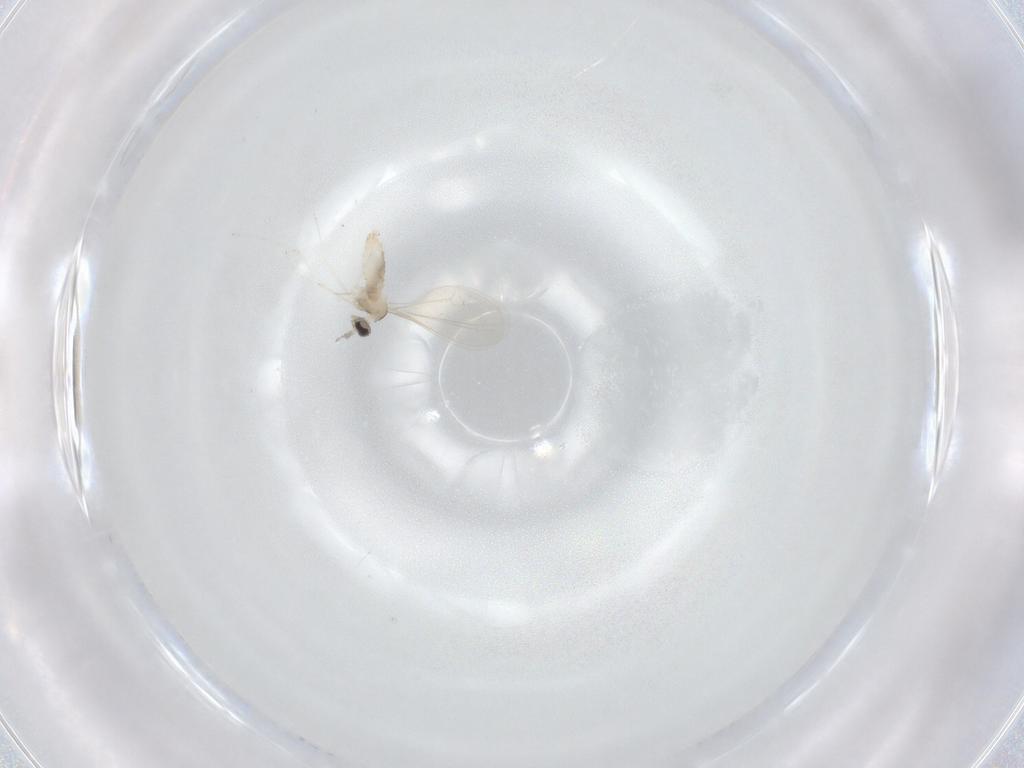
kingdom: Animalia
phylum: Arthropoda
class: Insecta
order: Diptera
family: Cecidomyiidae
